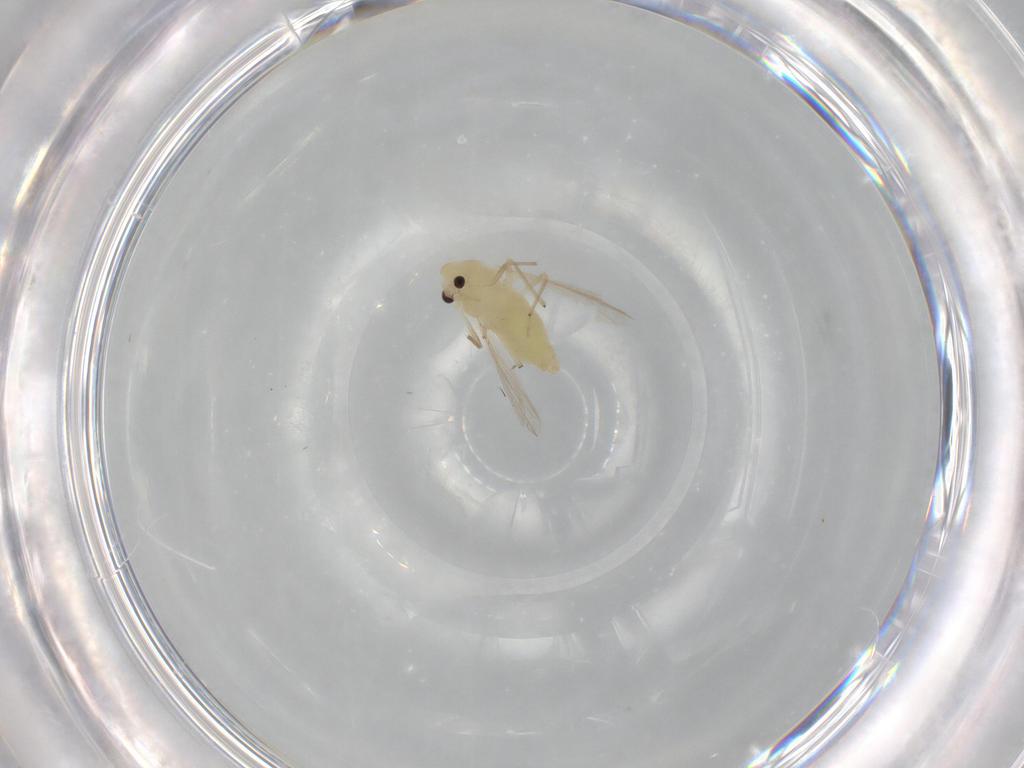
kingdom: Animalia
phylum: Arthropoda
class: Insecta
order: Diptera
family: Chironomidae
